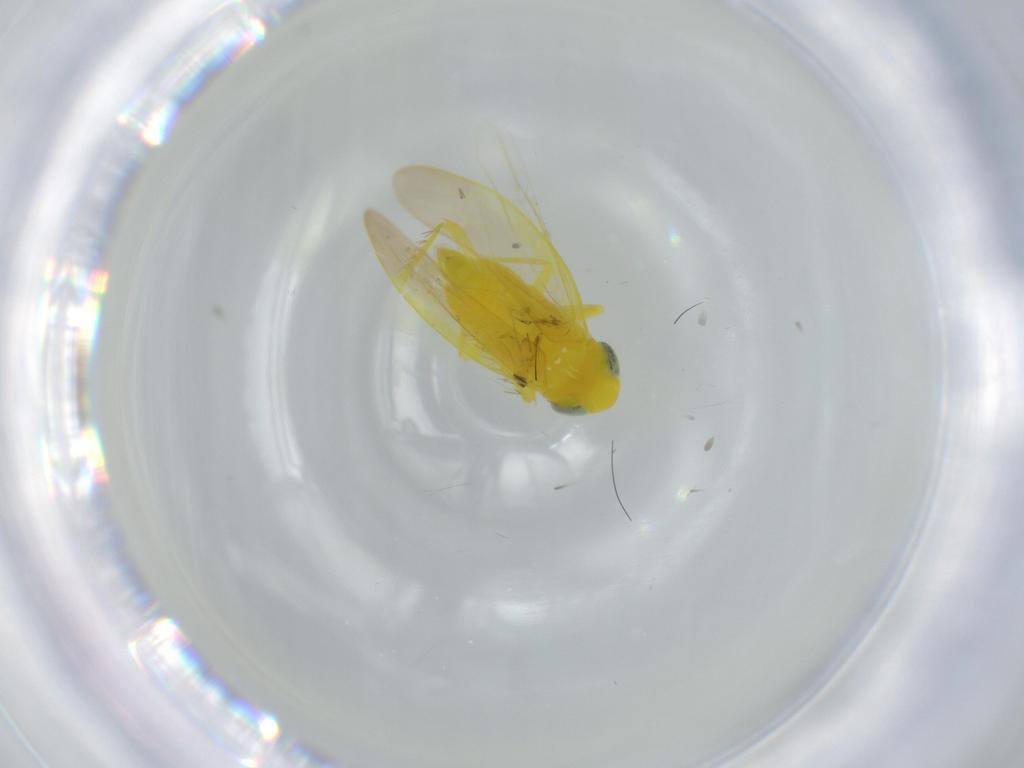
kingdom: Animalia
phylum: Arthropoda
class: Insecta
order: Hemiptera
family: Cicadellidae
